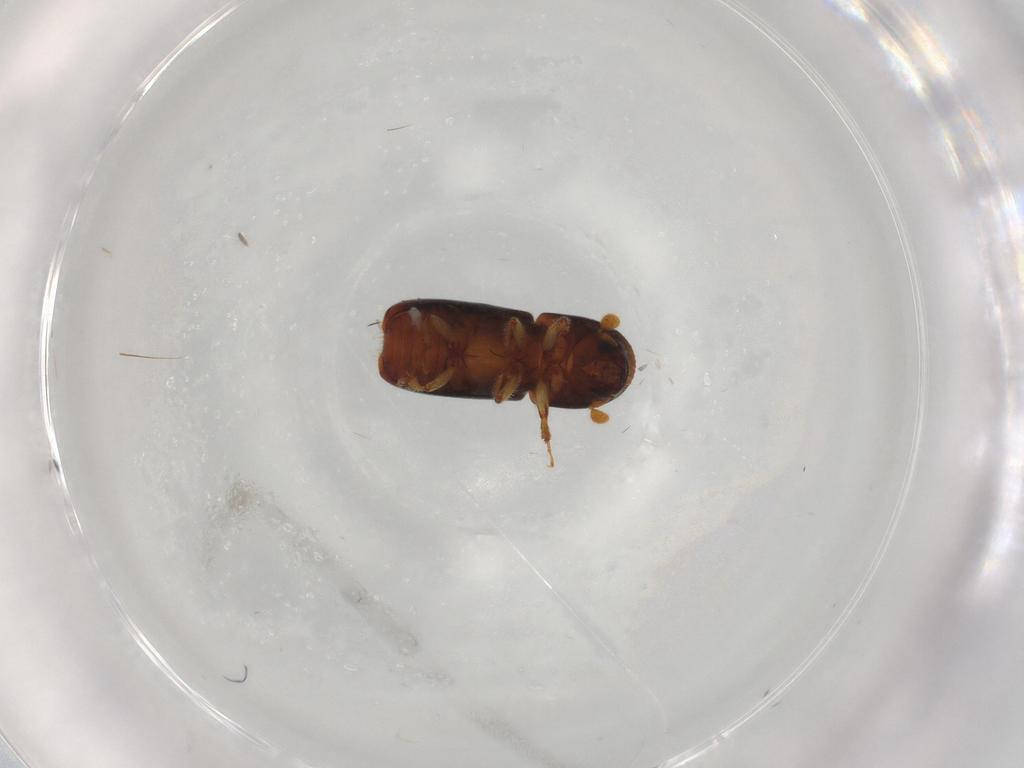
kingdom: Animalia
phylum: Arthropoda
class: Insecta
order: Coleoptera
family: Curculionidae
